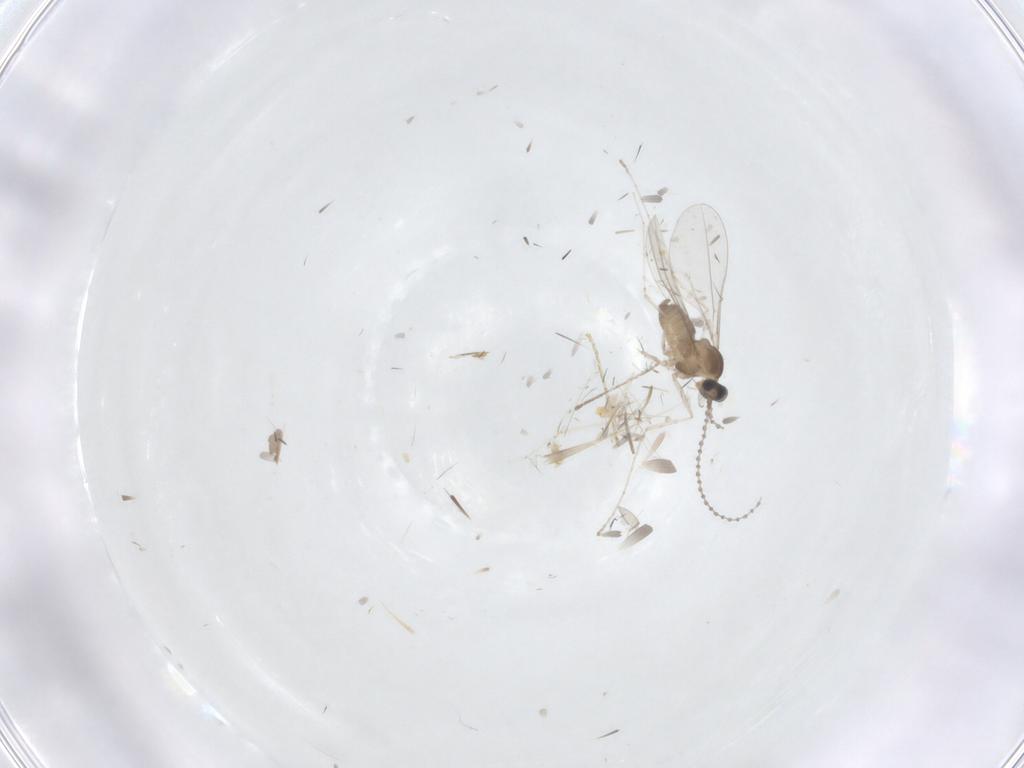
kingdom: Animalia
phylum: Arthropoda
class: Insecta
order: Diptera
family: Cecidomyiidae
